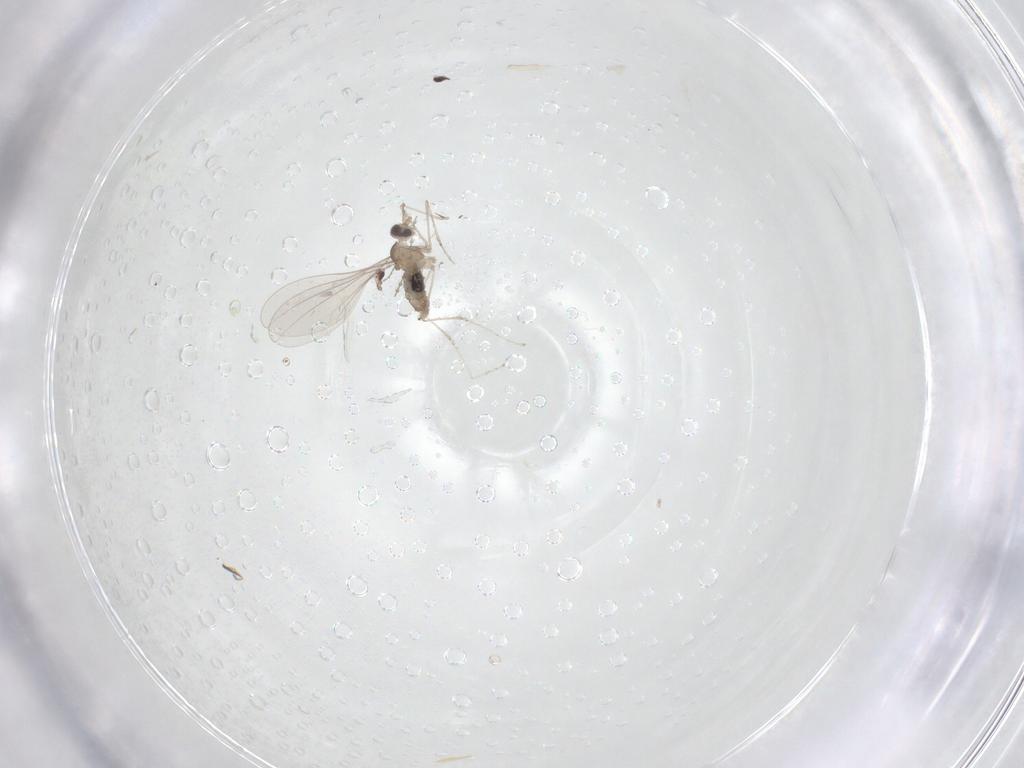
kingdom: Animalia
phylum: Arthropoda
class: Insecta
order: Diptera
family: Cecidomyiidae
